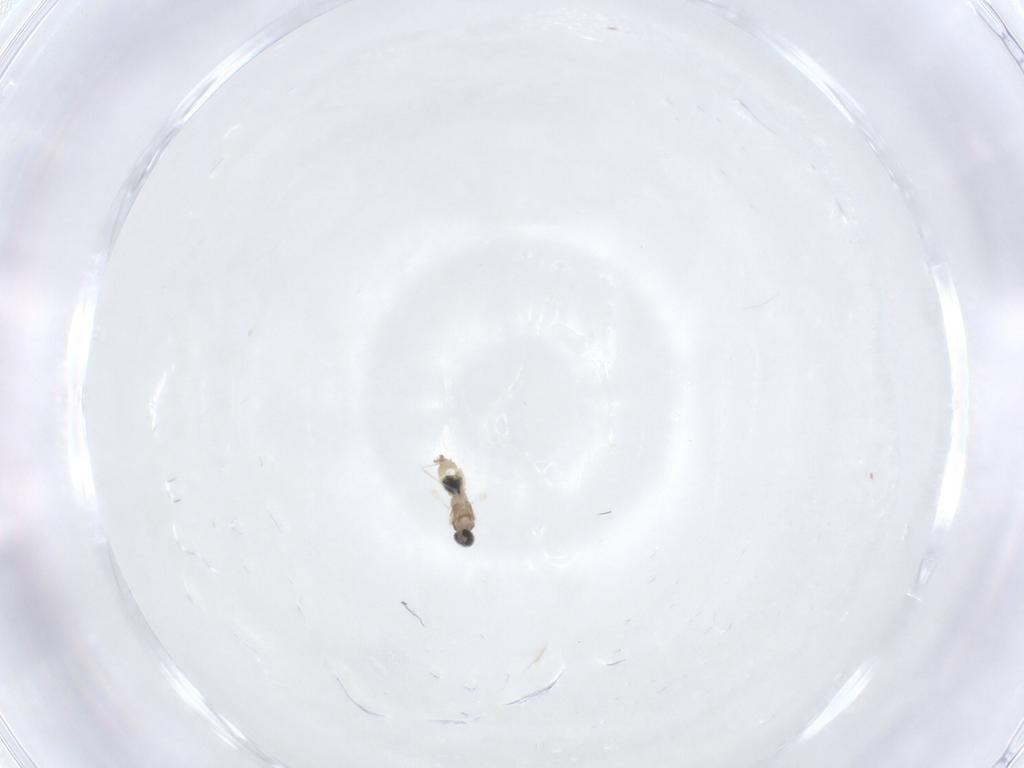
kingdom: Animalia
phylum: Arthropoda
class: Insecta
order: Diptera
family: Cecidomyiidae
